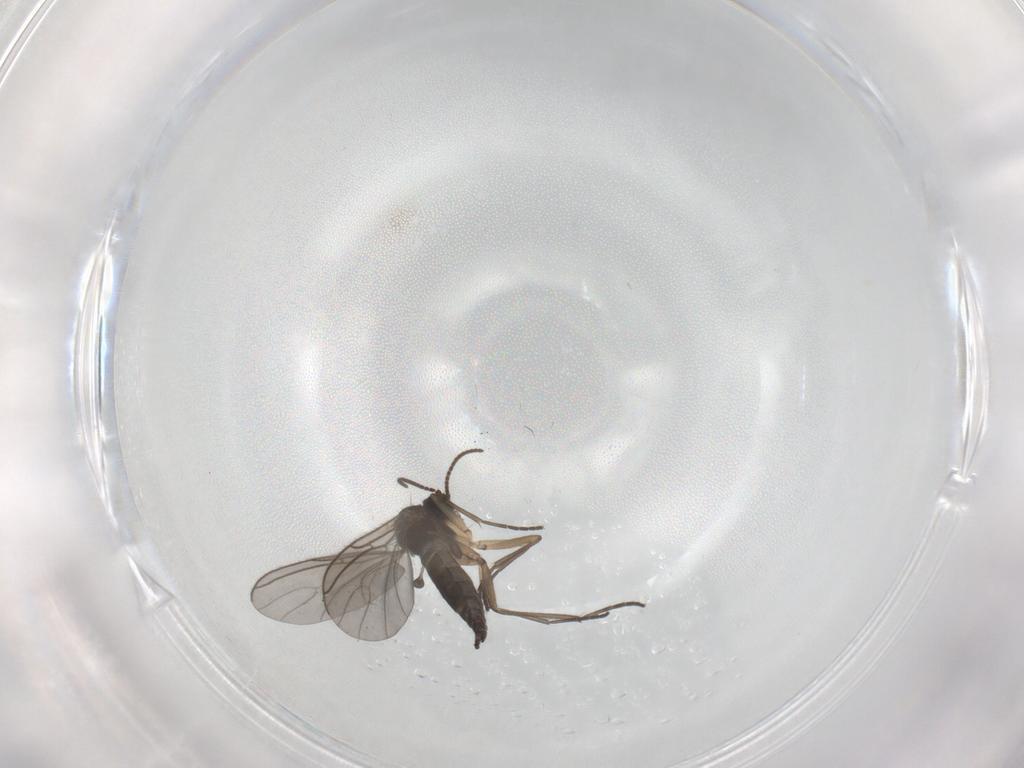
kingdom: Animalia
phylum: Arthropoda
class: Insecta
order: Diptera
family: Sciaridae
